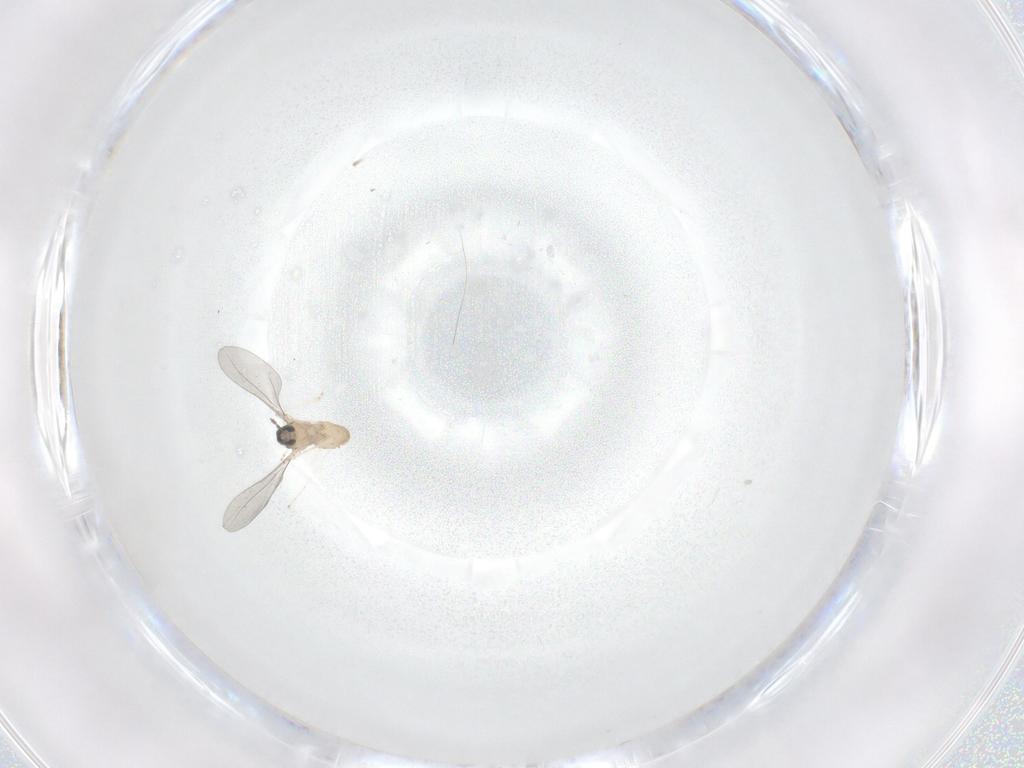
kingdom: Animalia
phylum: Arthropoda
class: Insecta
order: Diptera
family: Cecidomyiidae
